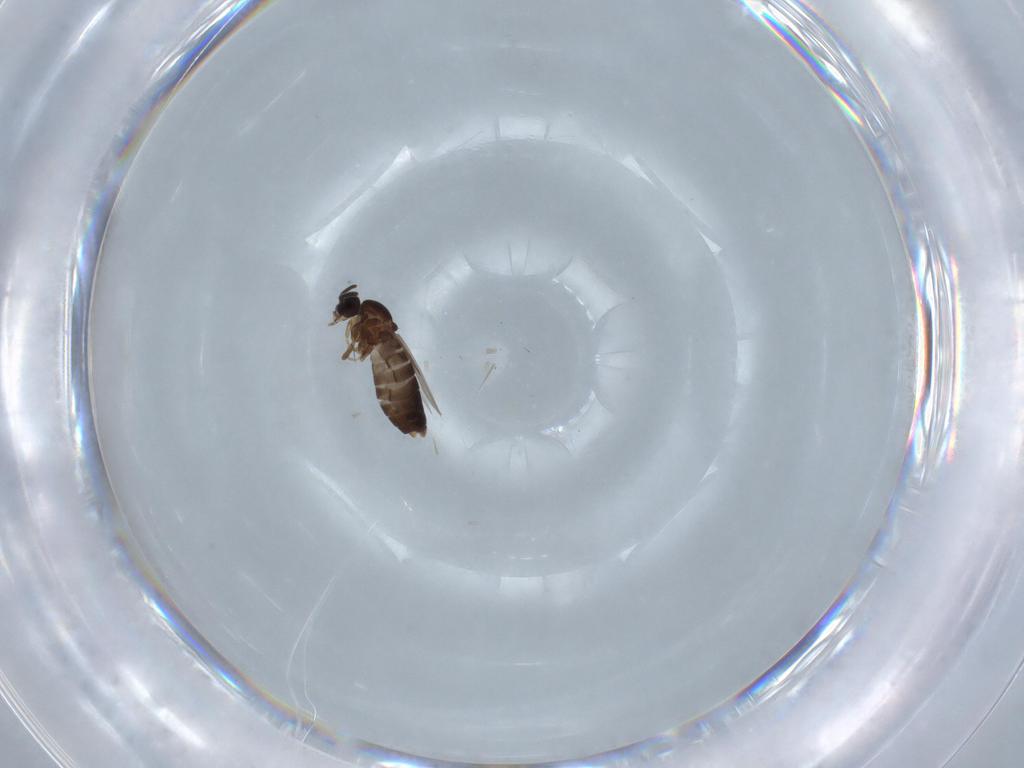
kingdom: Animalia
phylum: Arthropoda
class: Insecta
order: Diptera
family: Scatopsidae
